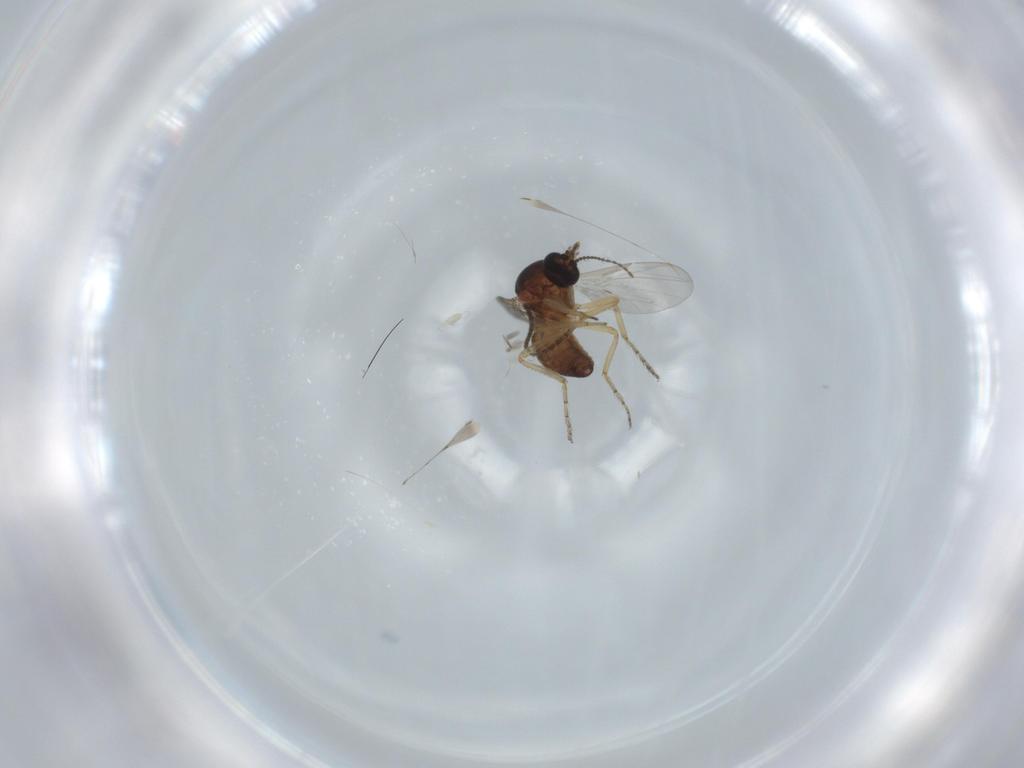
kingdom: Animalia
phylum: Arthropoda
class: Insecta
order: Diptera
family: Ceratopogonidae
